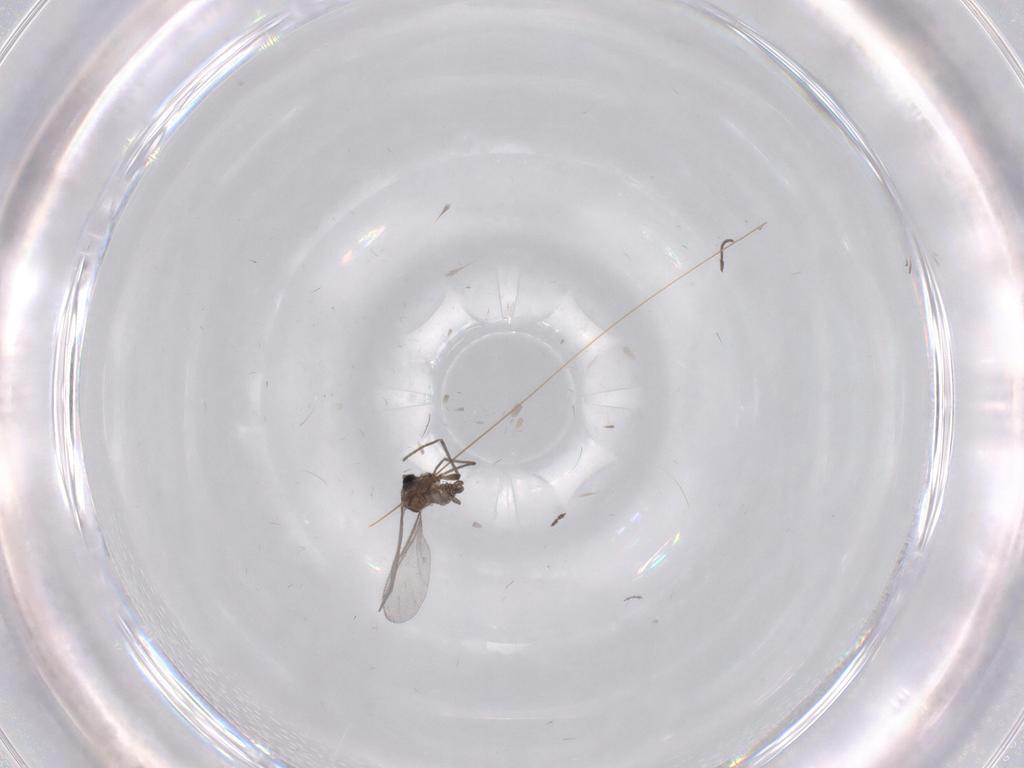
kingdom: Animalia
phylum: Arthropoda
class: Insecta
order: Diptera
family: Sciaridae
